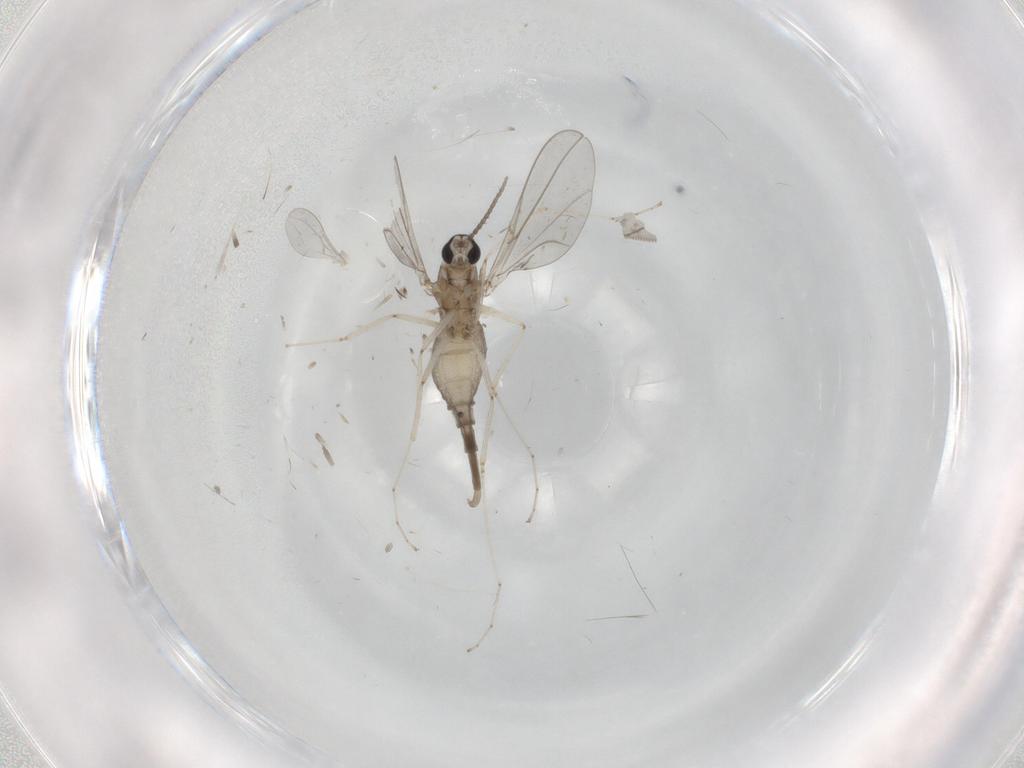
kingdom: Animalia
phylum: Arthropoda
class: Insecta
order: Diptera
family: Cecidomyiidae
